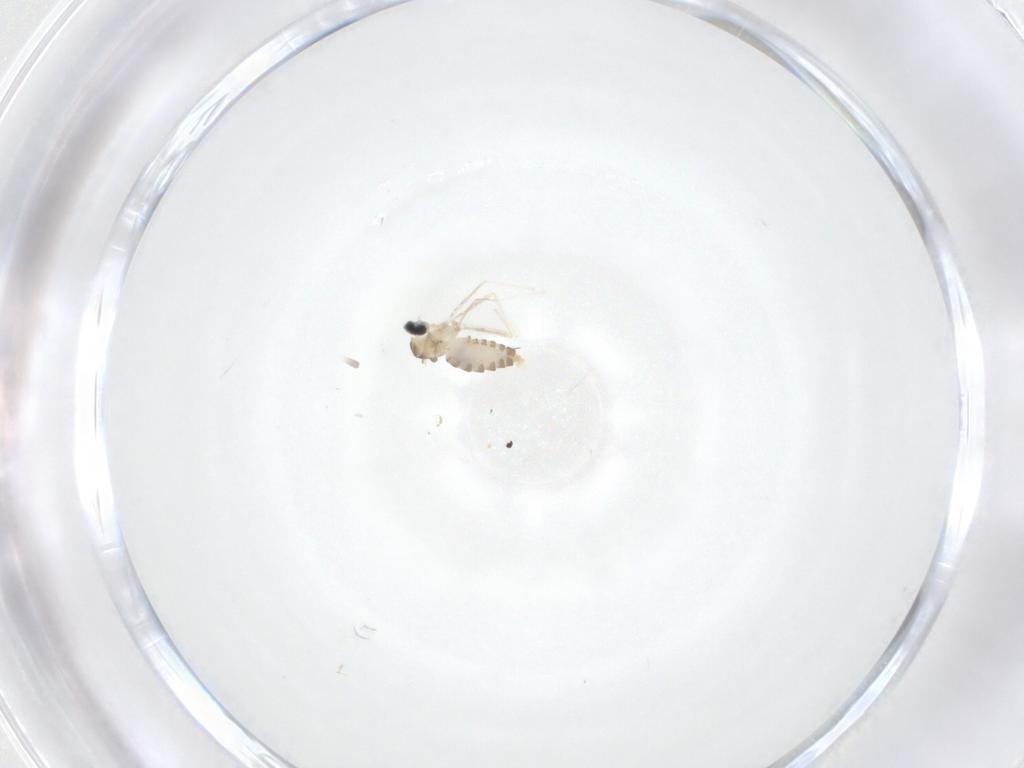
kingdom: Animalia
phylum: Arthropoda
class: Insecta
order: Diptera
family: Cecidomyiidae
